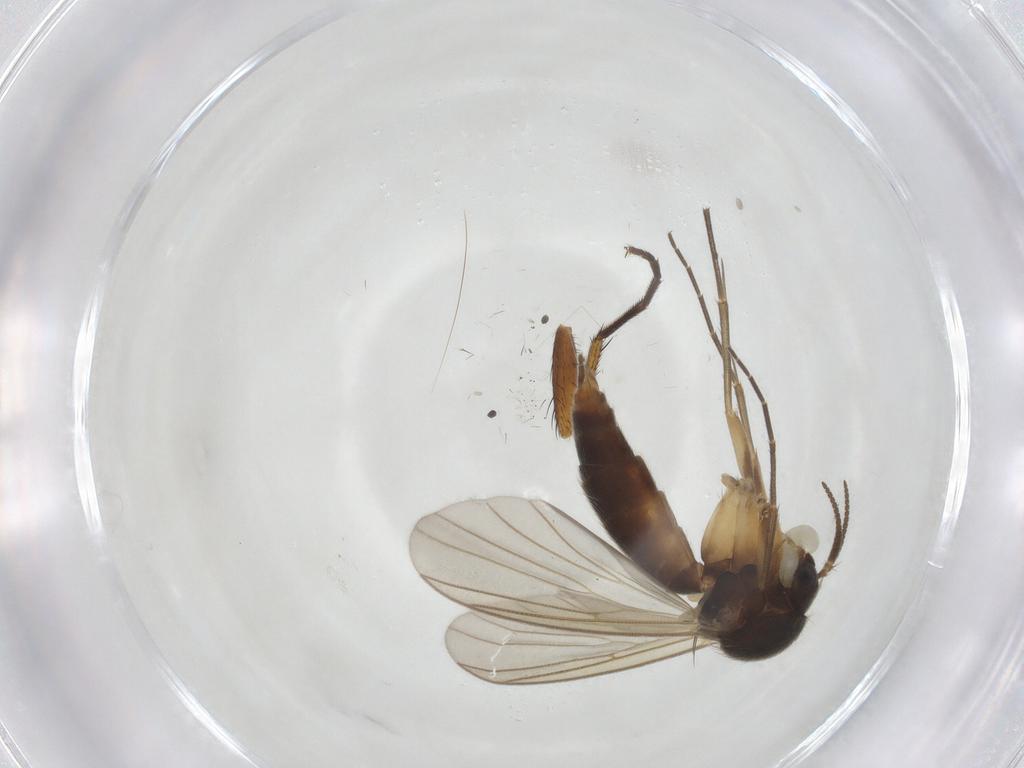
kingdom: Animalia
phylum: Arthropoda
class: Insecta
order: Diptera
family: Mycetophilidae
